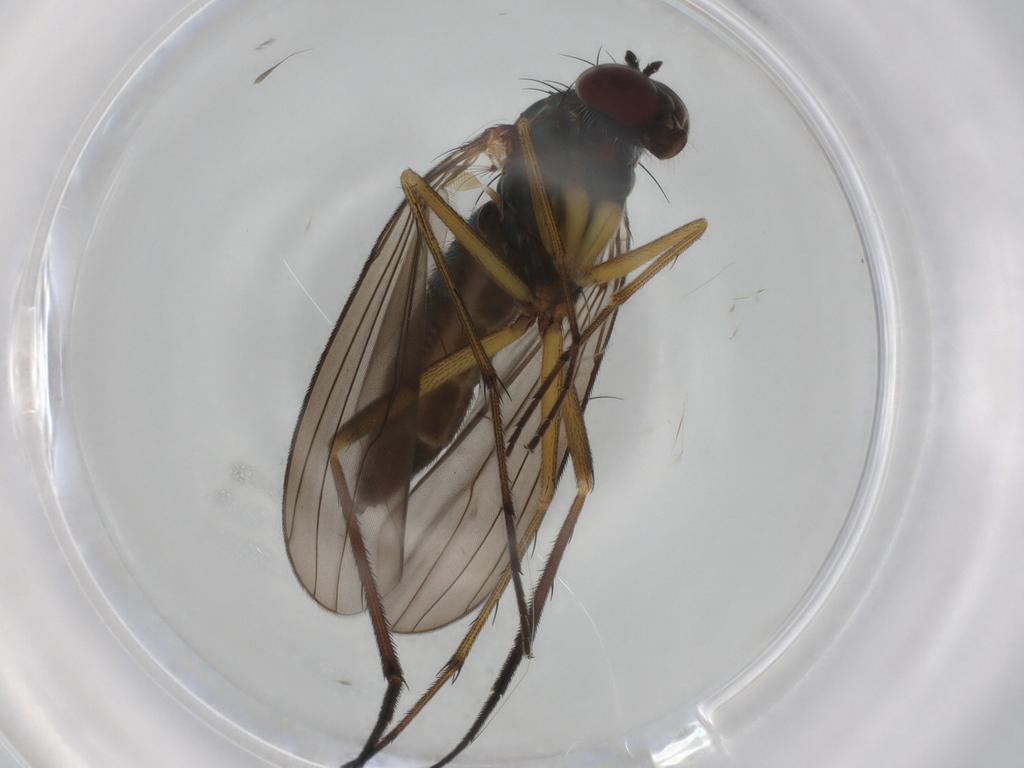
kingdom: Animalia
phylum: Arthropoda
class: Insecta
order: Diptera
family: Dolichopodidae
